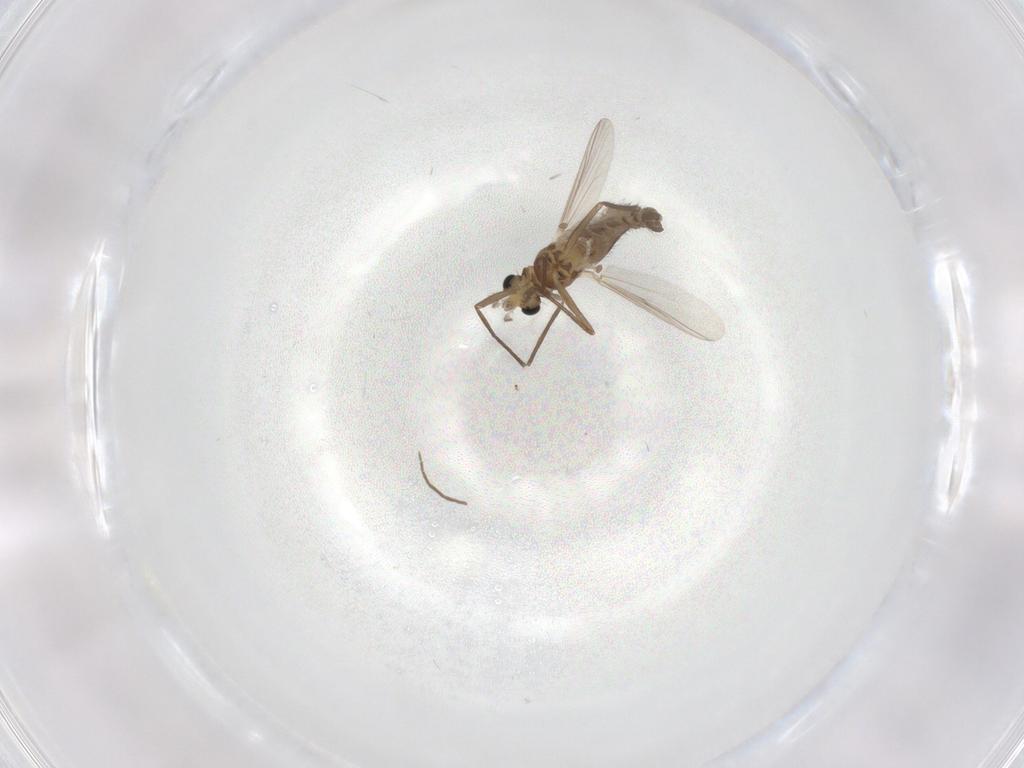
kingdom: Animalia
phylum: Arthropoda
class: Insecta
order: Diptera
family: Chironomidae
